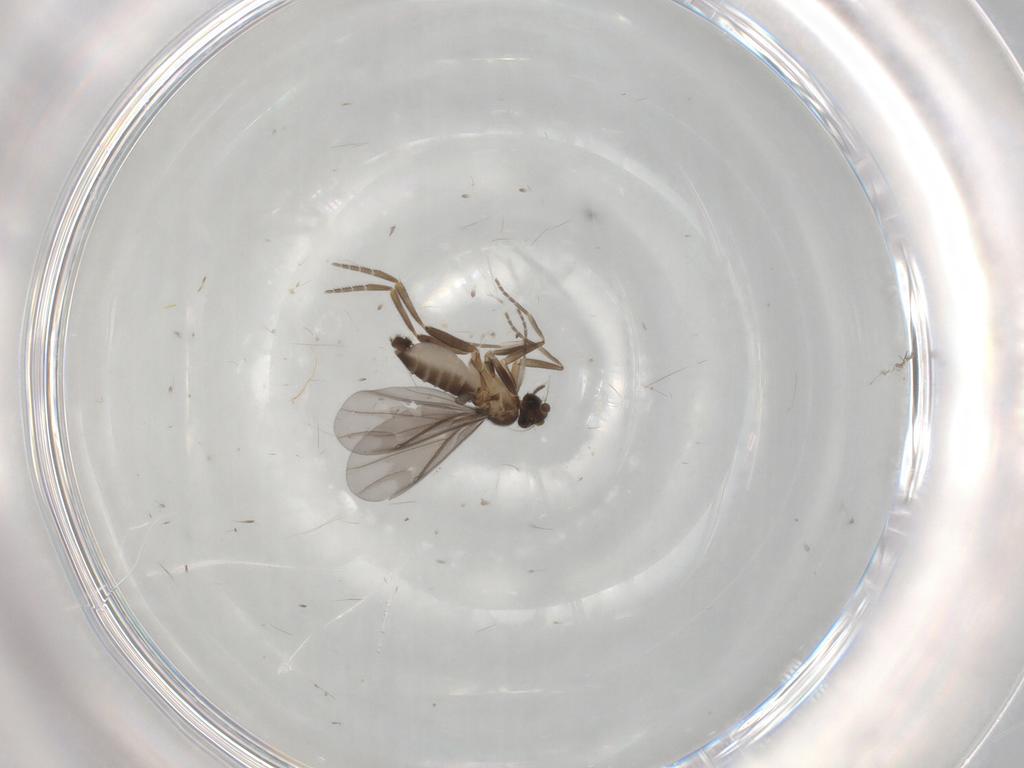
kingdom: Animalia
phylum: Arthropoda
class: Insecta
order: Diptera
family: Phoridae
